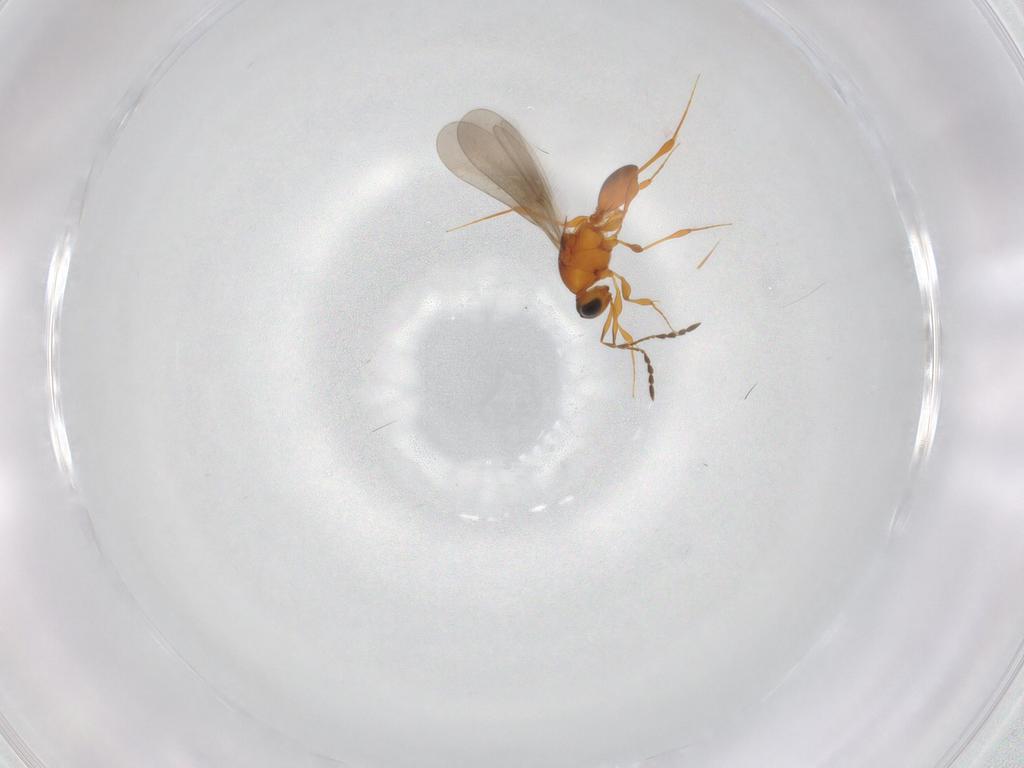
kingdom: Animalia
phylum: Arthropoda
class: Insecta
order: Hymenoptera
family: Platygastridae
